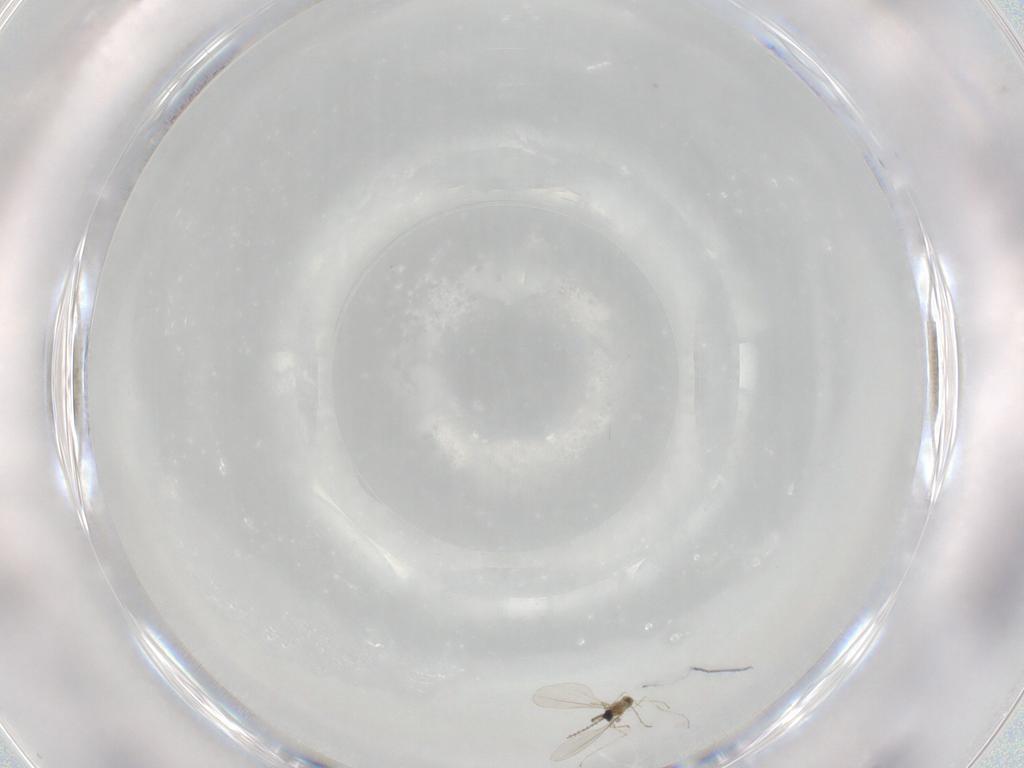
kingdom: Animalia
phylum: Arthropoda
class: Insecta
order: Diptera
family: Cecidomyiidae
